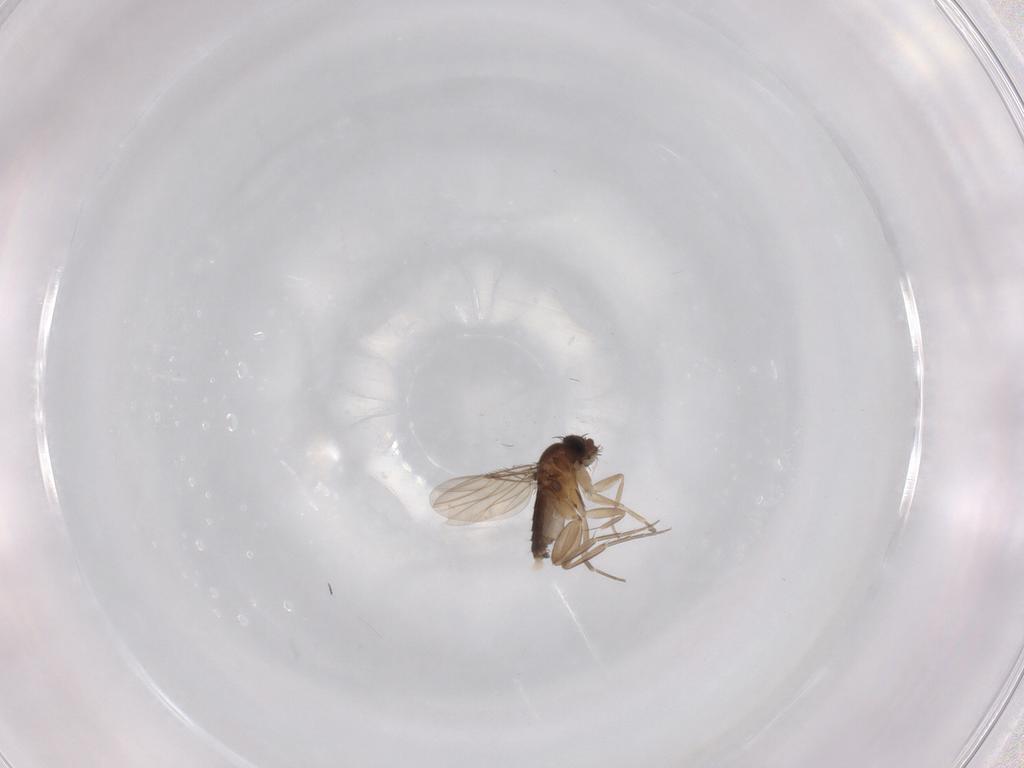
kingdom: Animalia
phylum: Arthropoda
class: Insecta
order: Diptera
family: Phoridae
